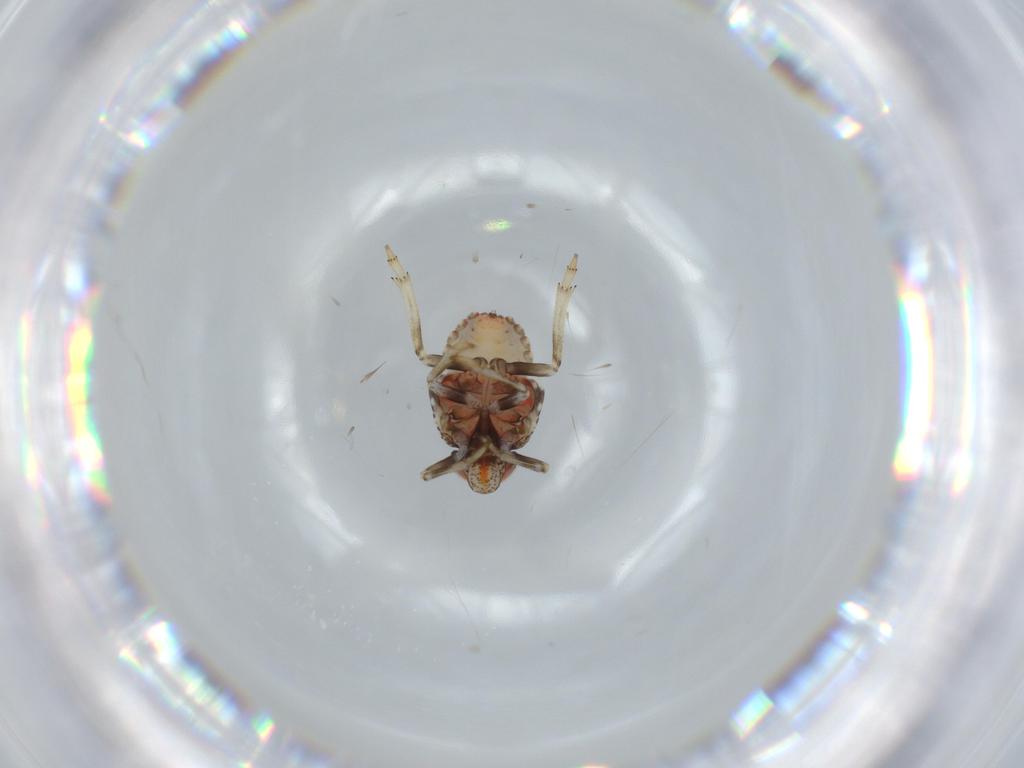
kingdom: Animalia
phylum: Arthropoda
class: Insecta
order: Hemiptera
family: Issidae
